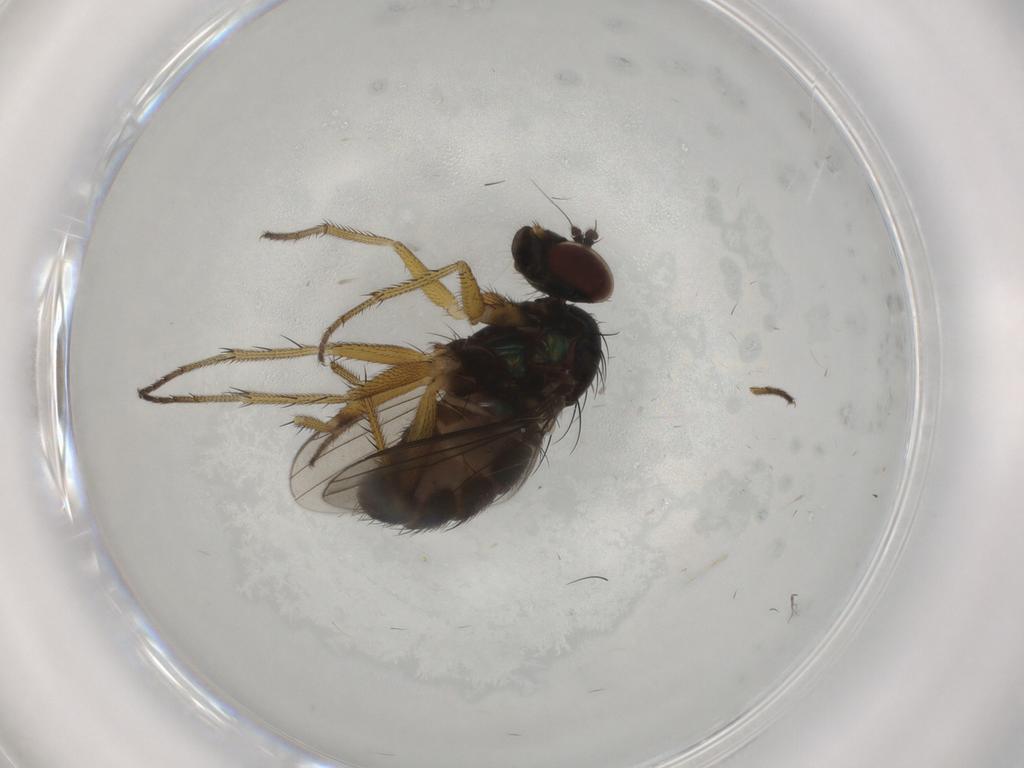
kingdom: Animalia
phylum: Arthropoda
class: Insecta
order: Diptera
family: Dolichopodidae
